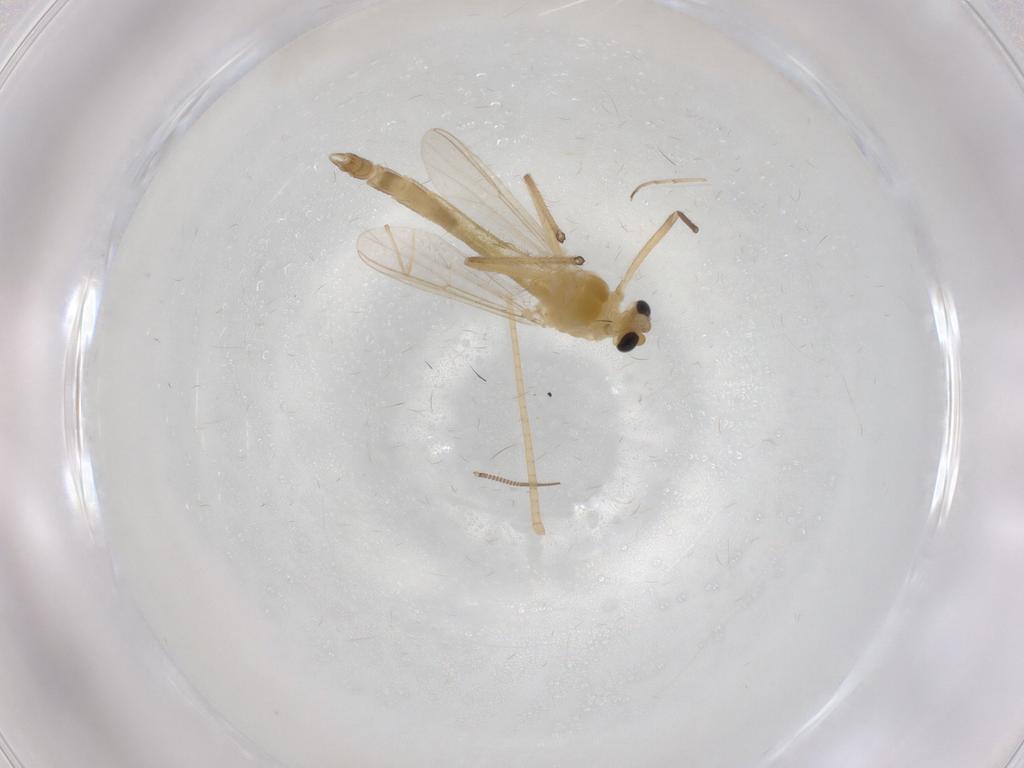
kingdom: Animalia
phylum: Arthropoda
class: Insecta
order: Diptera
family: Chironomidae
